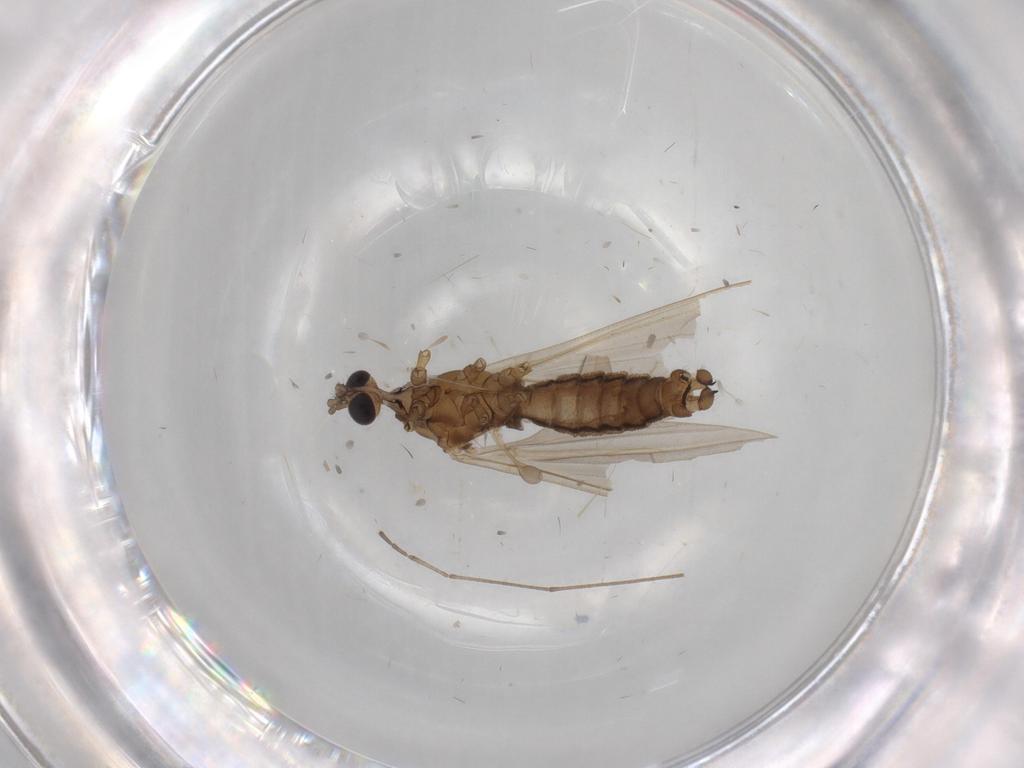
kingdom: Animalia
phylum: Arthropoda
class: Insecta
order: Diptera
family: Limoniidae
